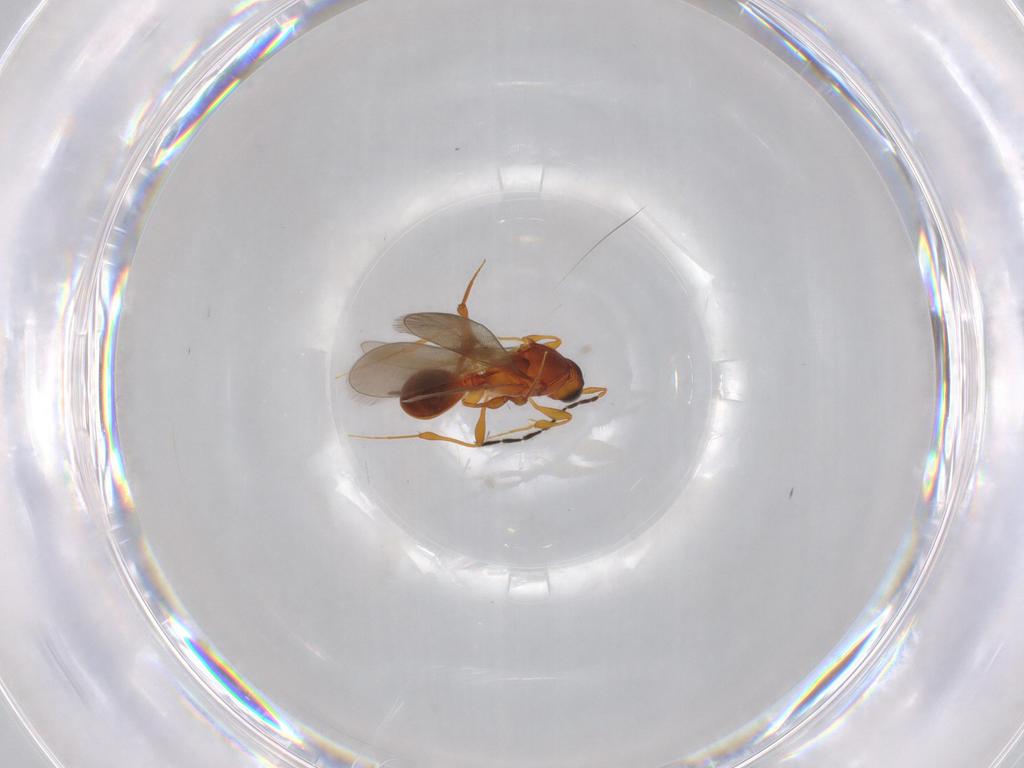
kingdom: Animalia
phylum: Arthropoda
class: Insecta
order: Hymenoptera
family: Platygastridae
